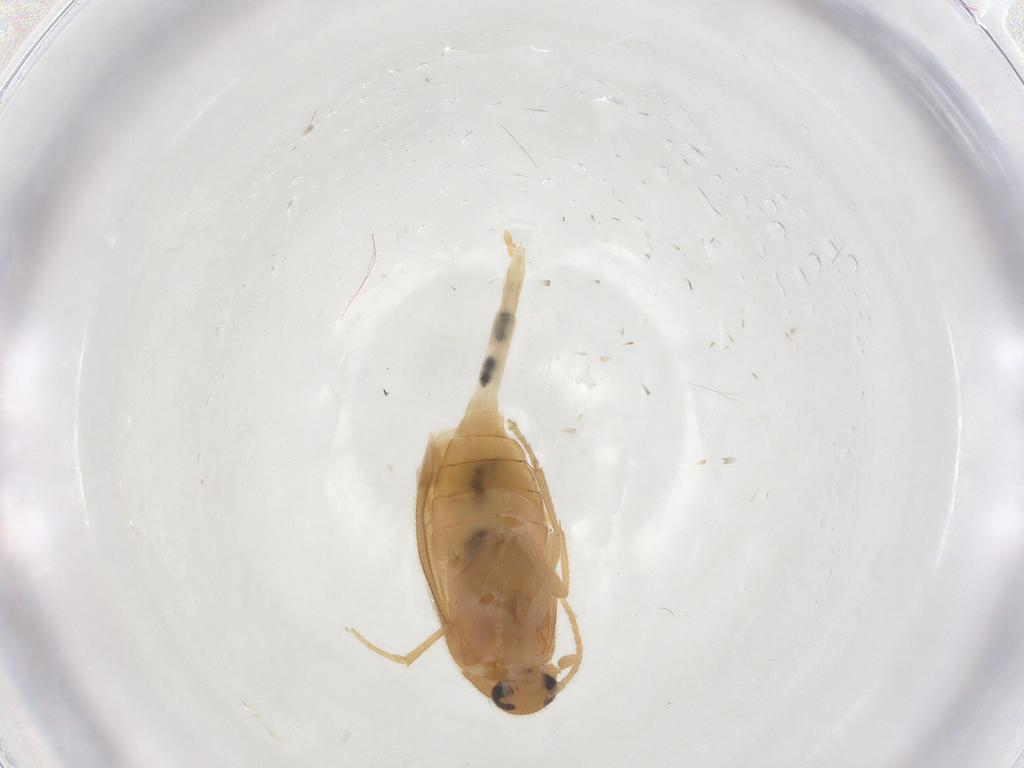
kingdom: Animalia
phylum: Arthropoda
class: Insecta
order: Coleoptera
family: Scraptiidae
